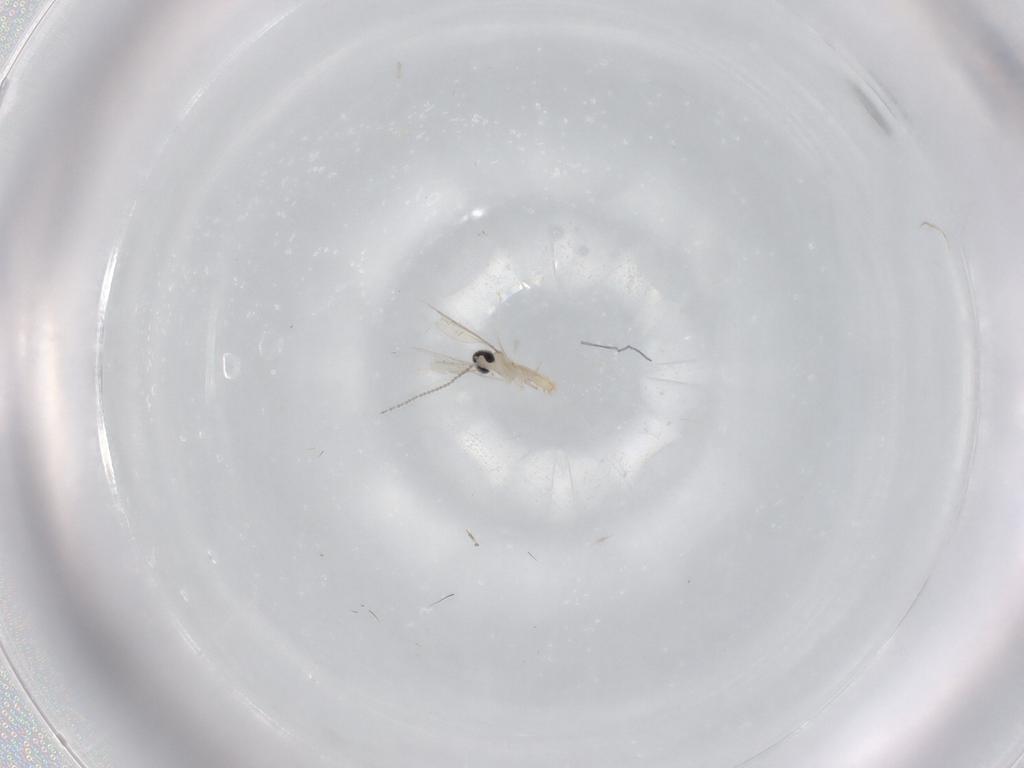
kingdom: Animalia
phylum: Arthropoda
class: Insecta
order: Diptera
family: Cecidomyiidae
